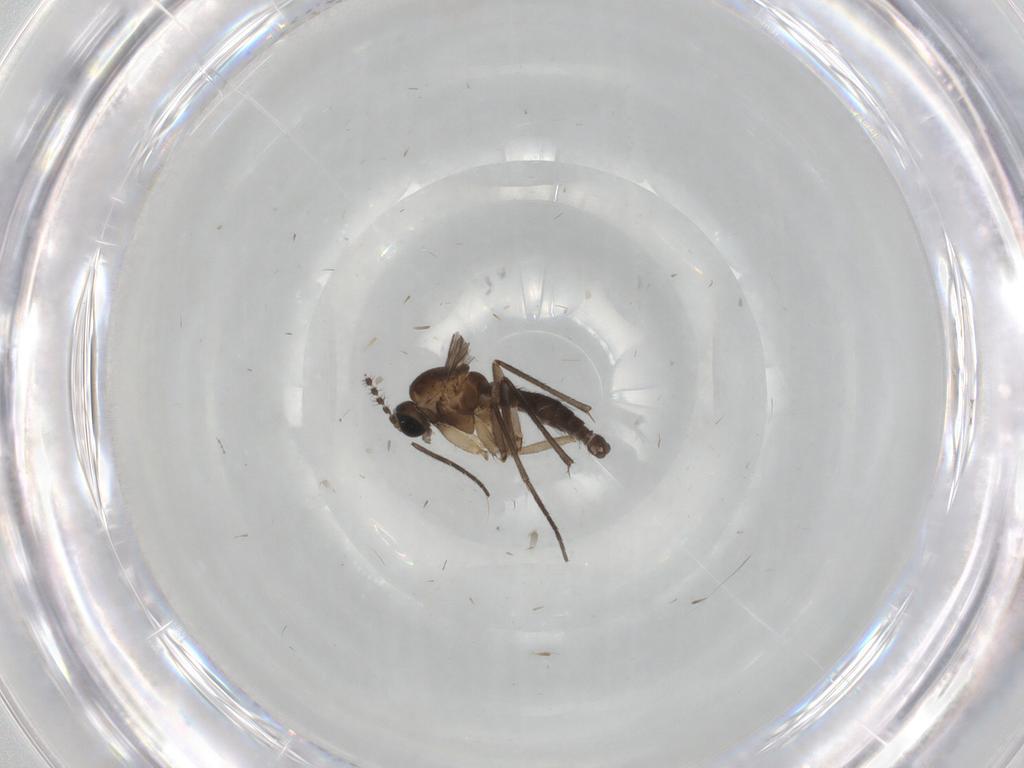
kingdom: Animalia
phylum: Arthropoda
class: Insecta
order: Diptera
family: Sciaridae
